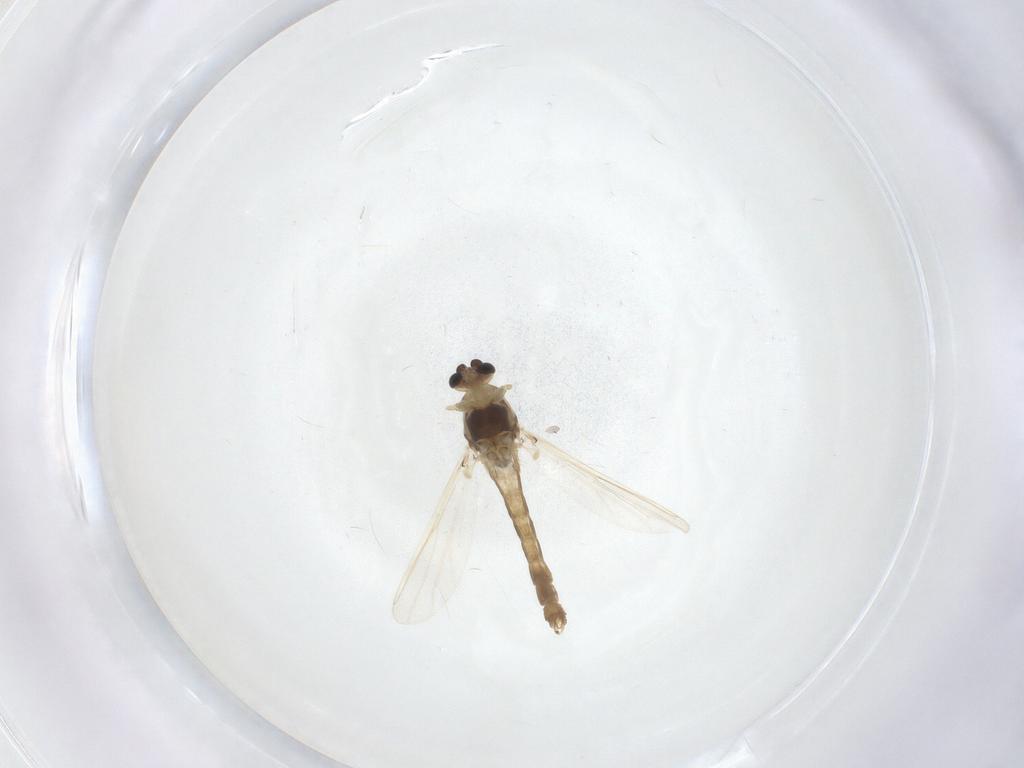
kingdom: Animalia
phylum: Arthropoda
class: Insecta
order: Diptera
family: Chironomidae
